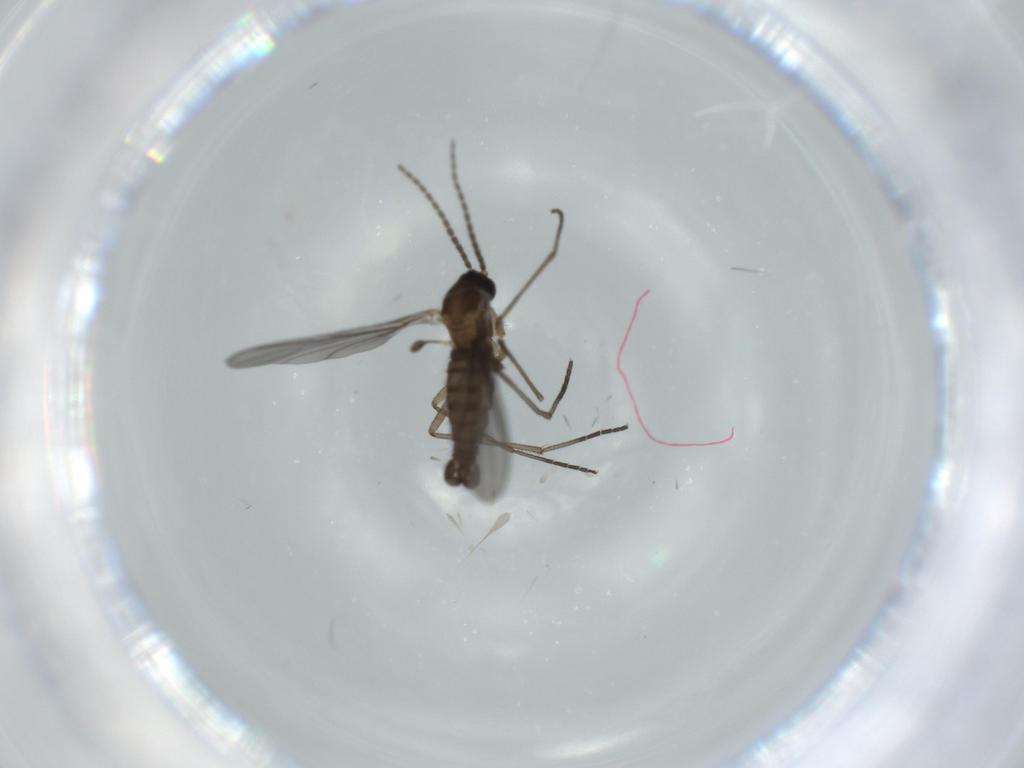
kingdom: Animalia
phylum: Arthropoda
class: Insecta
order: Diptera
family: Sciaridae
